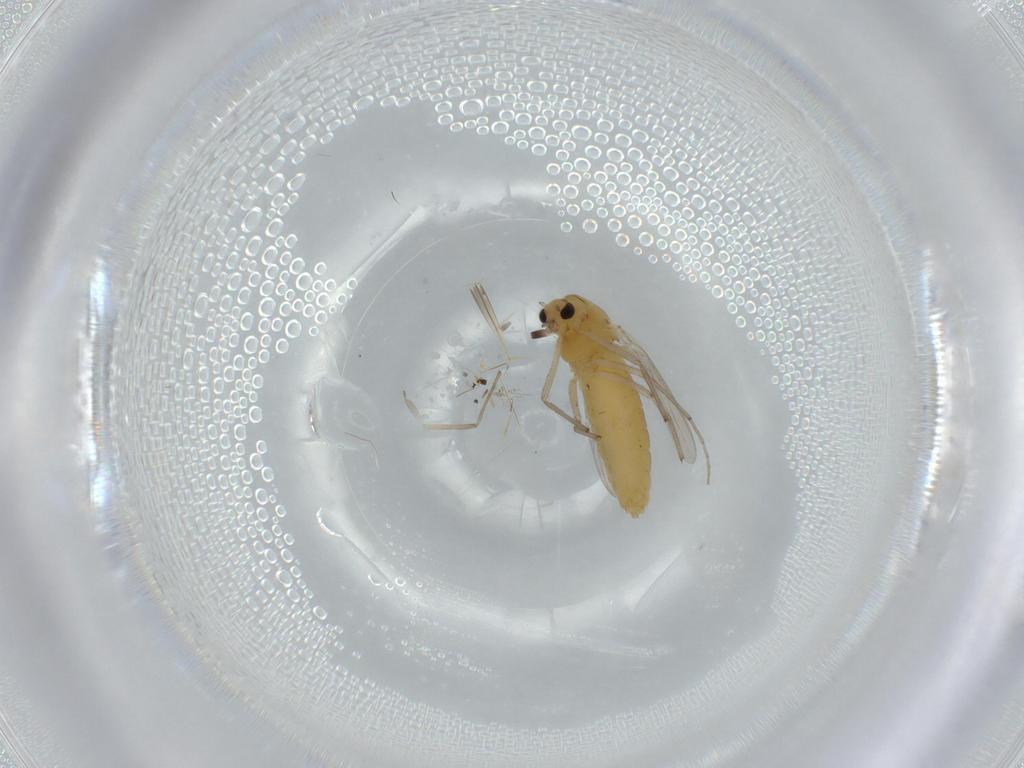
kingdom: Animalia
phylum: Arthropoda
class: Insecta
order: Diptera
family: Chironomidae
